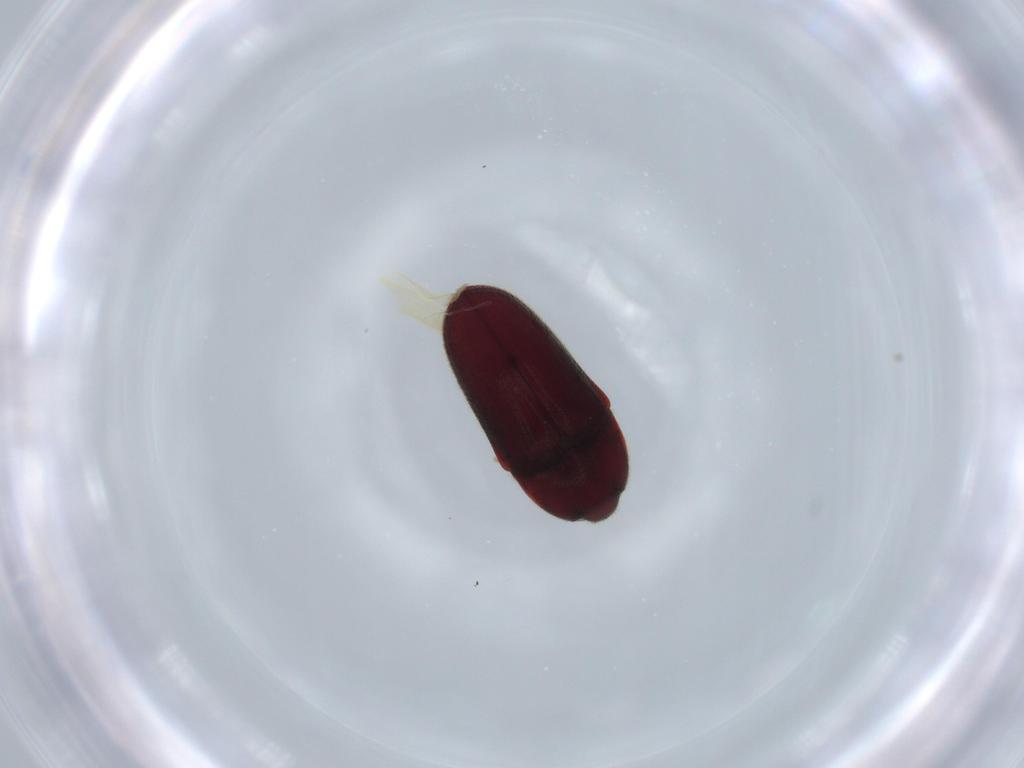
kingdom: Animalia
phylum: Arthropoda
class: Insecta
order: Coleoptera
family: Throscidae
